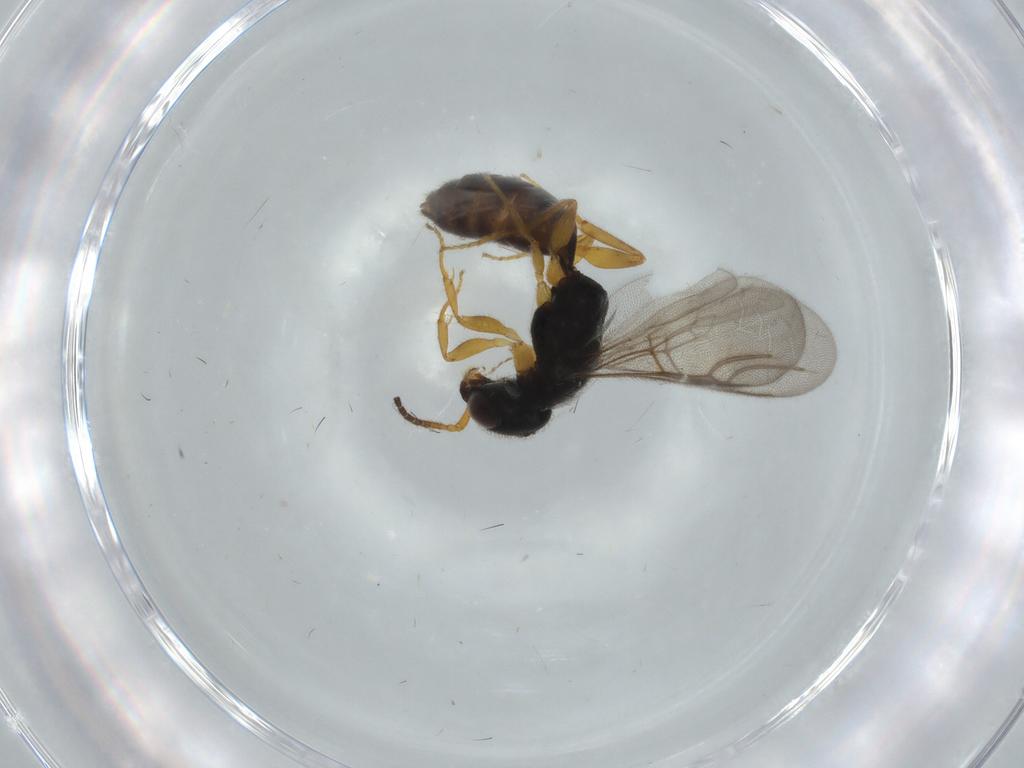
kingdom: Animalia
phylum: Arthropoda
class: Insecta
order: Hymenoptera
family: Bethylidae
